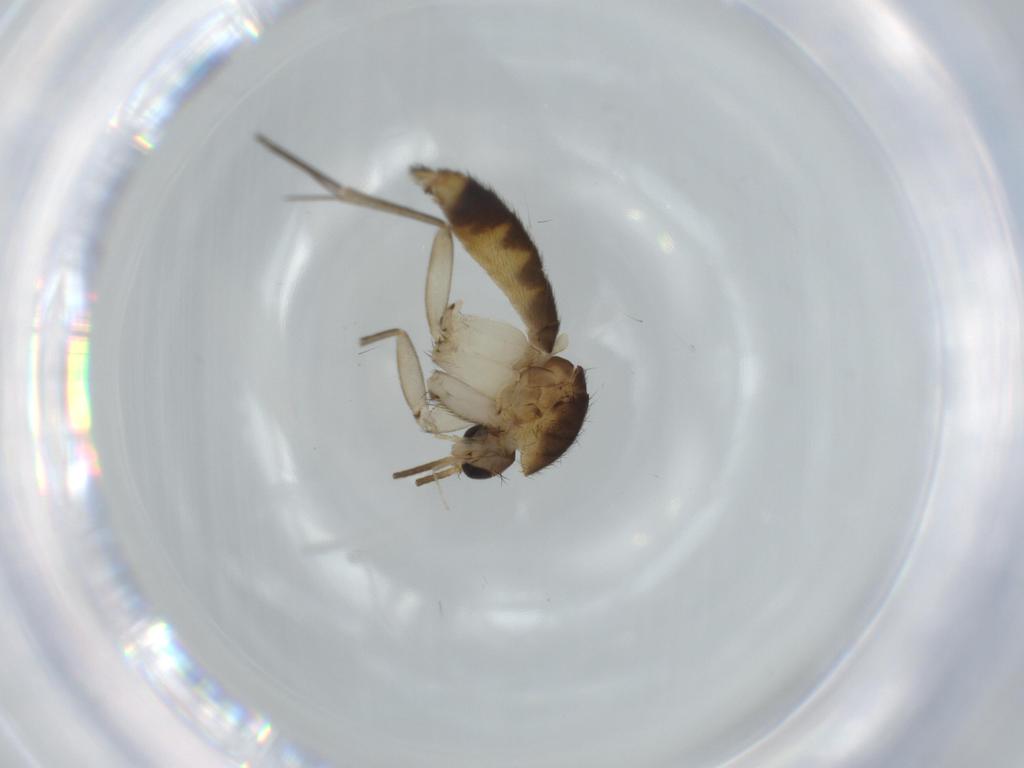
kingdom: Animalia
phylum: Arthropoda
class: Insecta
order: Diptera
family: Mycetophilidae
